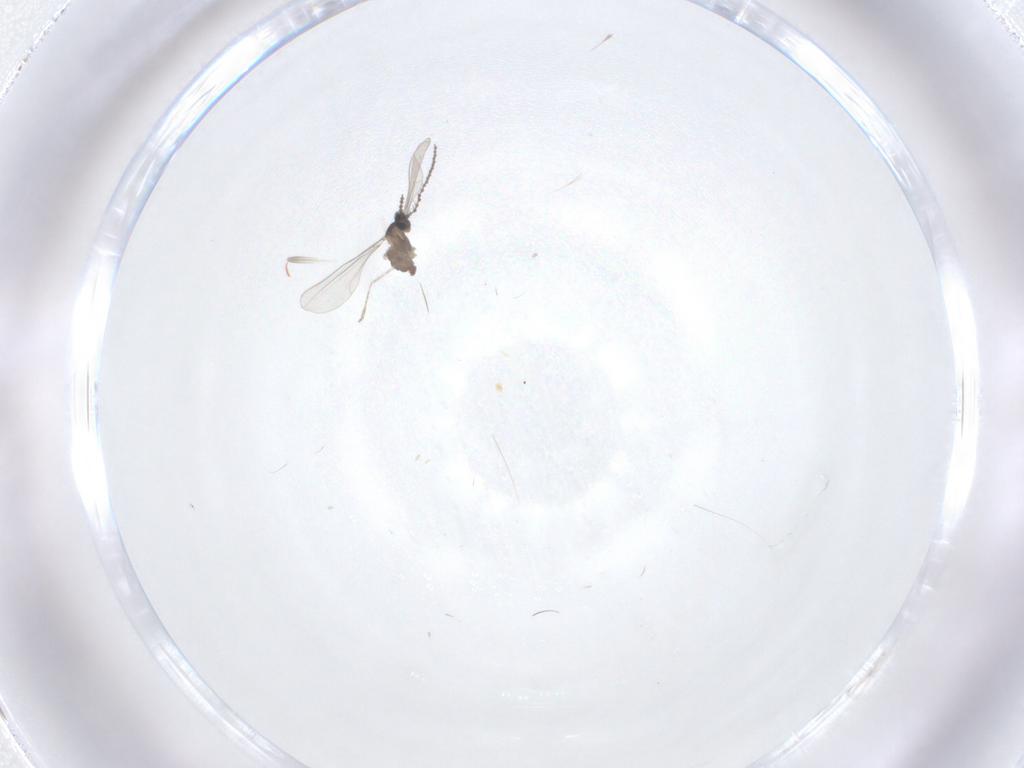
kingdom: Animalia
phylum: Arthropoda
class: Insecta
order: Diptera
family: Cecidomyiidae
